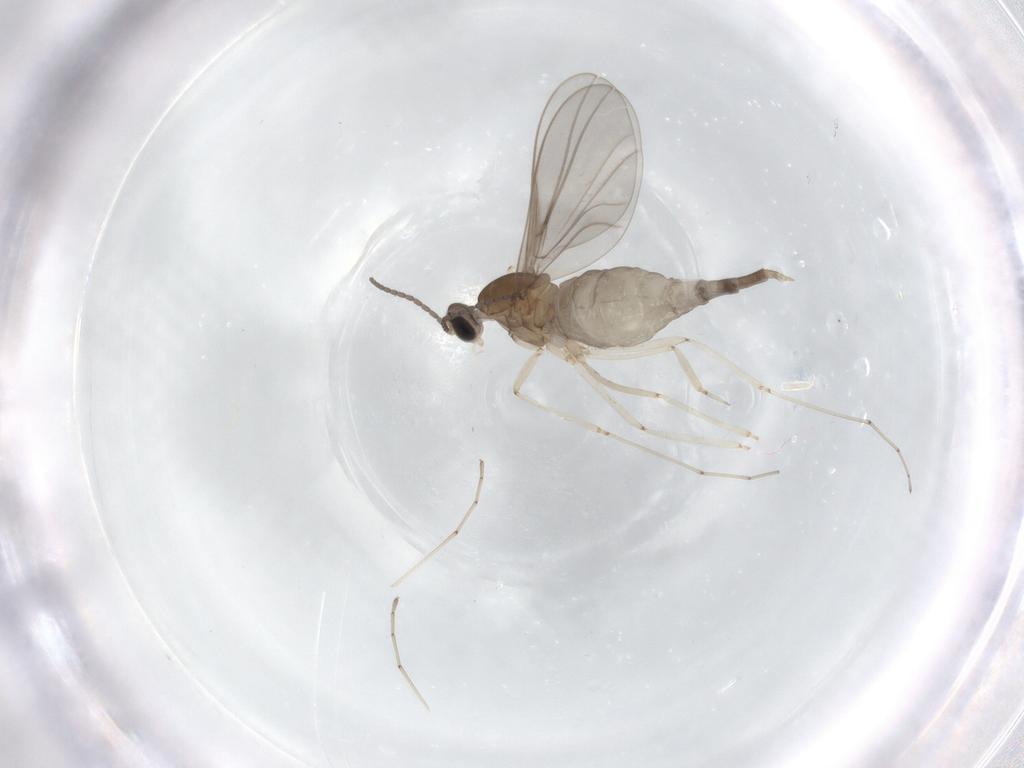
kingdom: Animalia
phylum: Arthropoda
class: Insecta
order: Diptera
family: Cecidomyiidae
